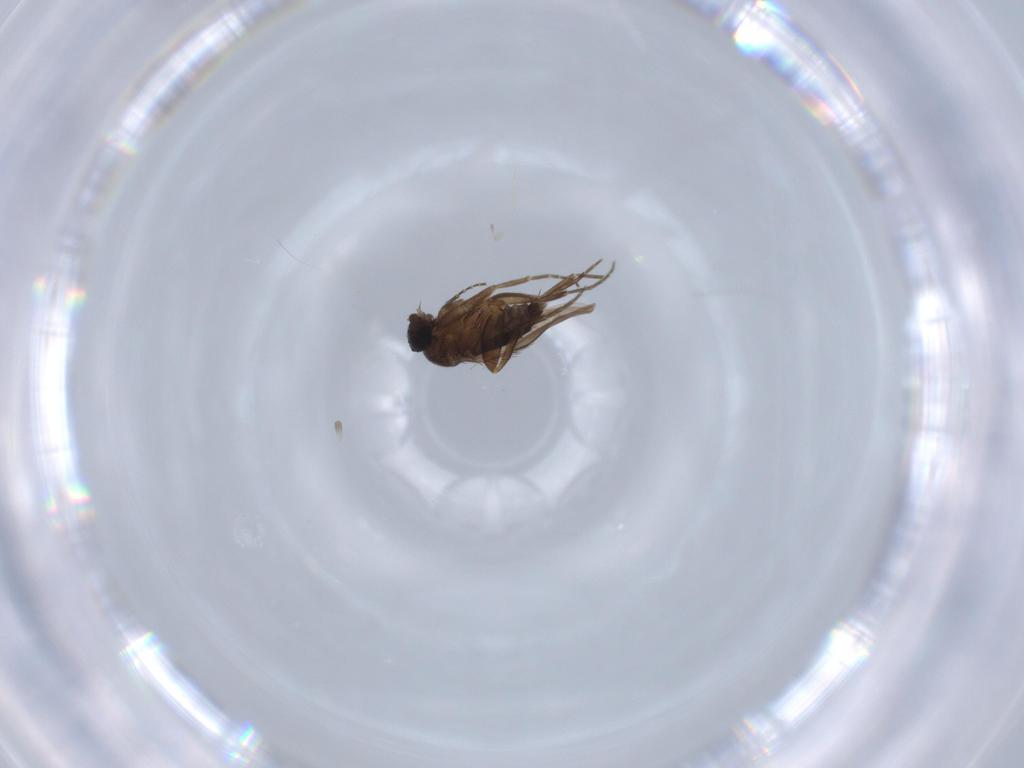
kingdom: Animalia
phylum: Arthropoda
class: Insecta
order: Diptera
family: Phoridae
